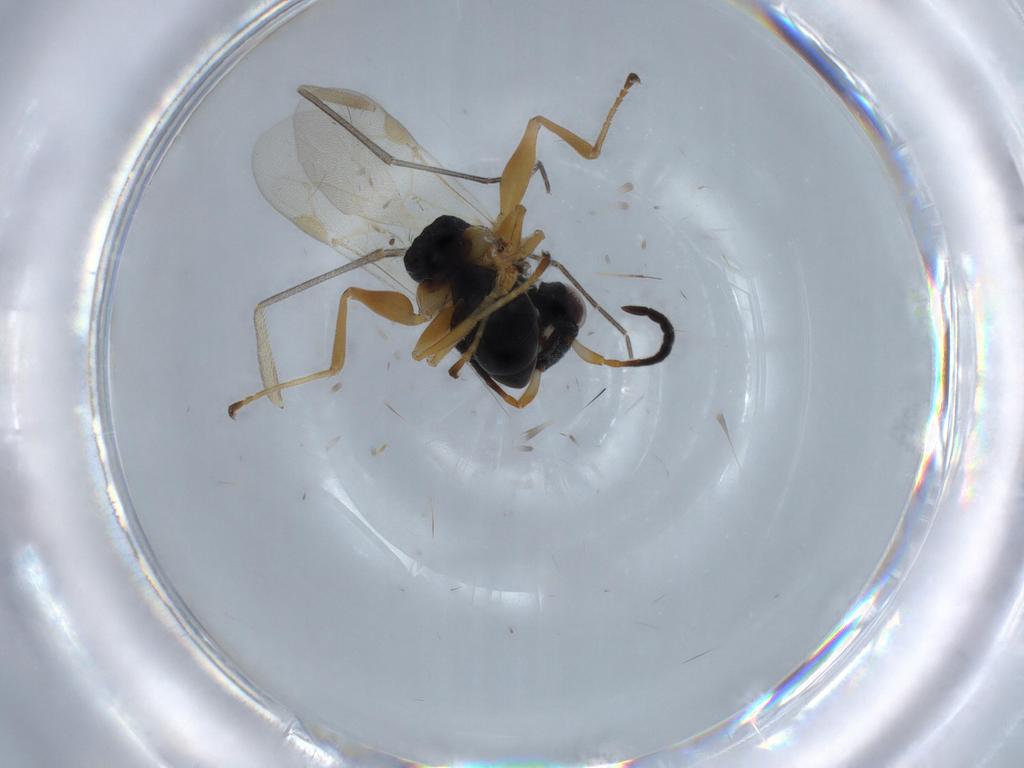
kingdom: Animalia
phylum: Arthropoda
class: Insecta
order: Hymenoptera
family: Dryinidae
